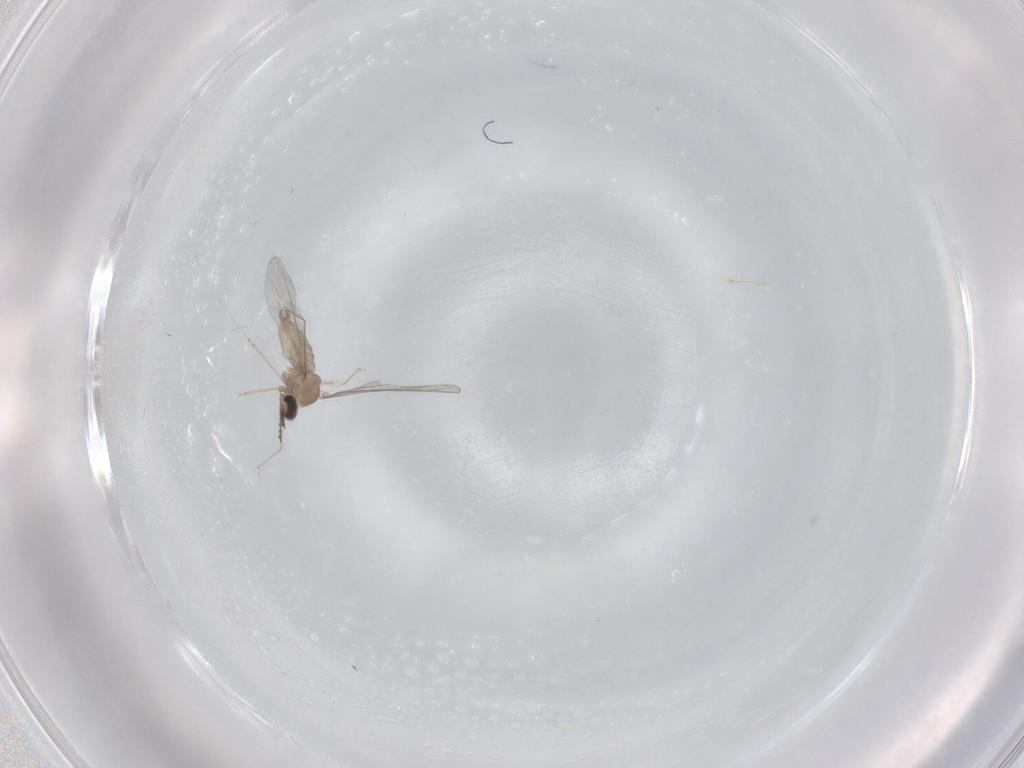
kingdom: Animalia
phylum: Arthropoda
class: Insecta
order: Diptera
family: Cecidomyiidae
